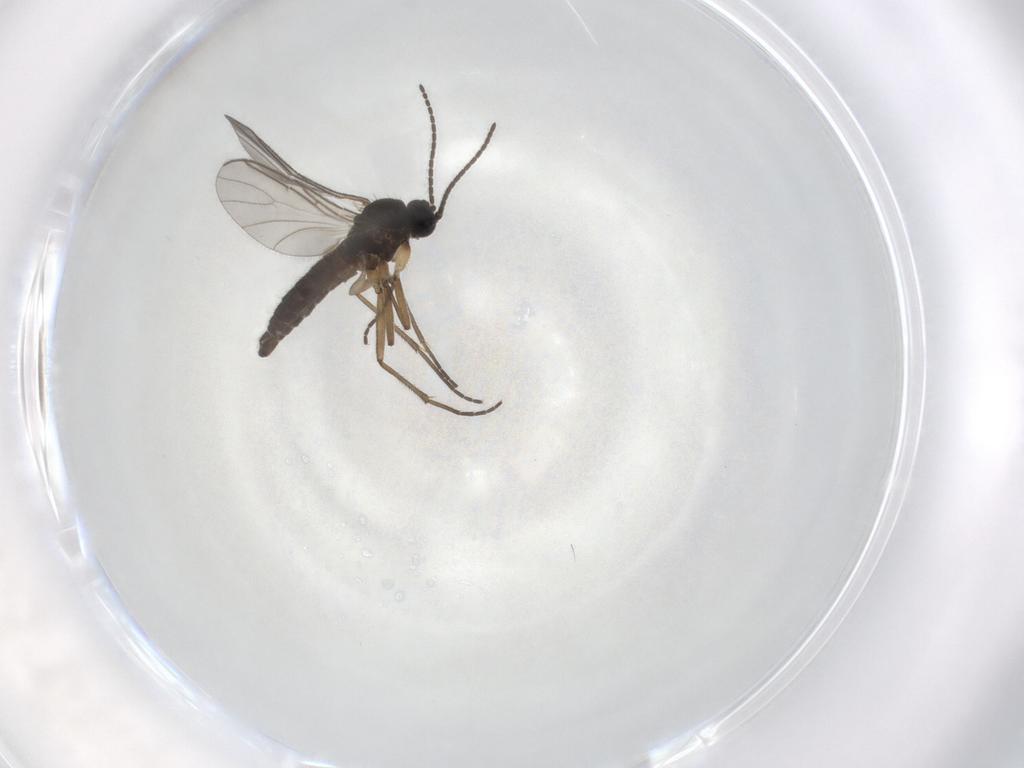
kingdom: Animalia
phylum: Arthropoda
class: Insecta
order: Diptera
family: Sciaridae
